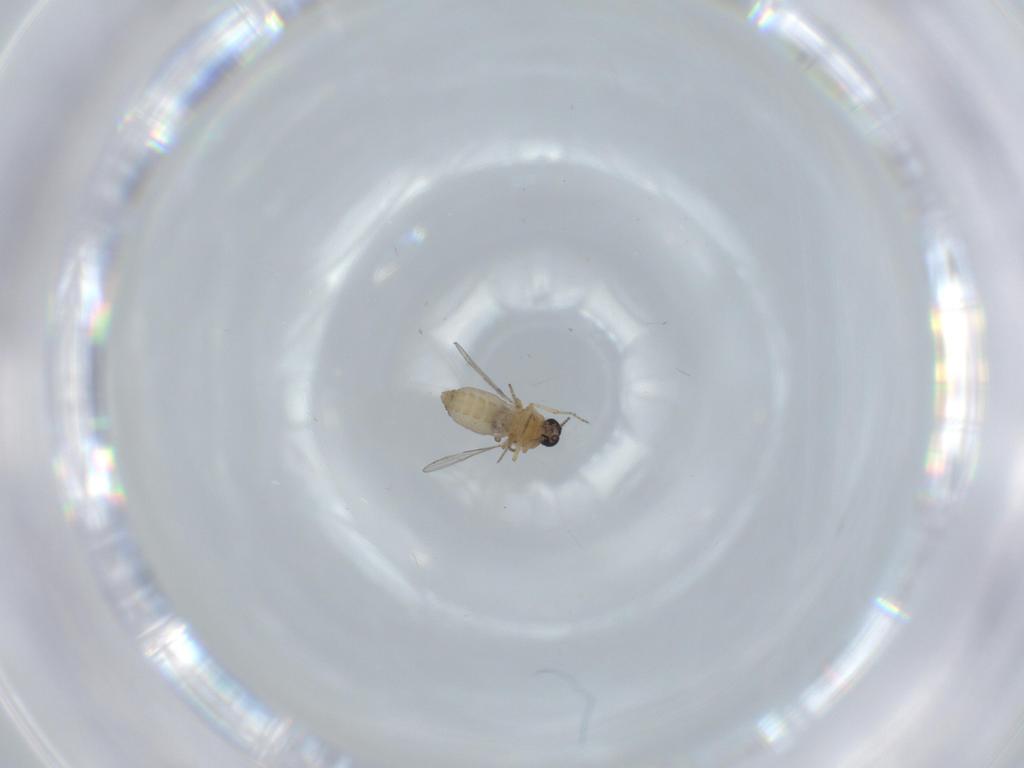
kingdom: Animalia
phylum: Arthropoda
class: Insecta
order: Diptera
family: Ceratopogonidae
